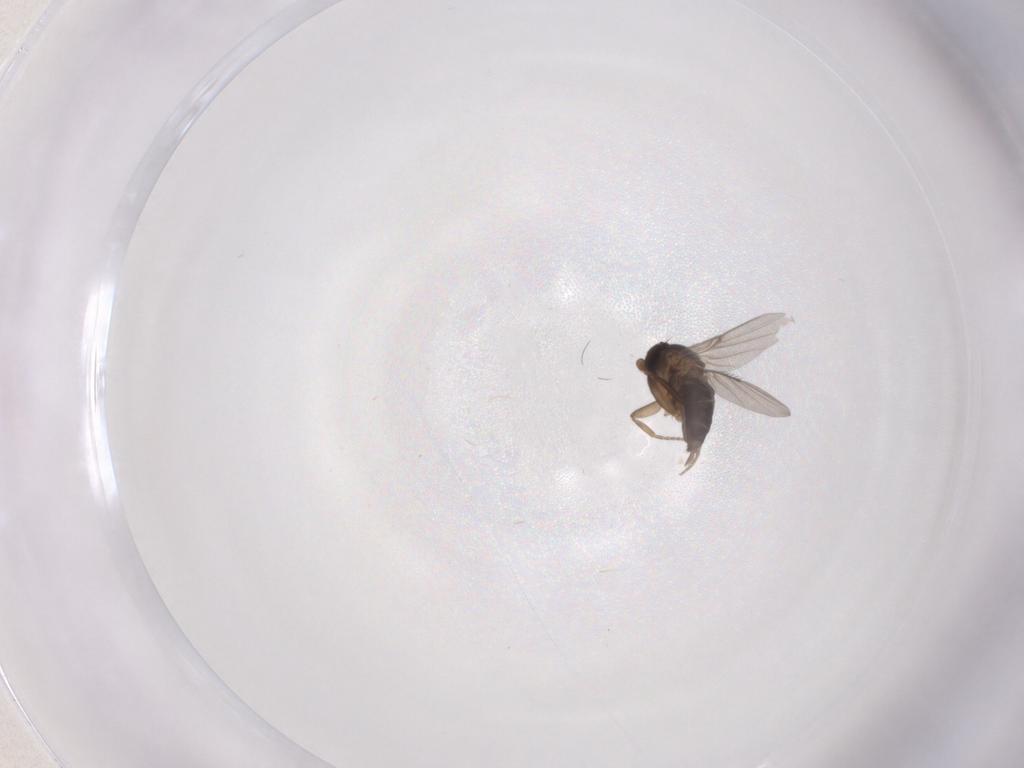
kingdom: Animalia
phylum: Arthropoda
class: Insecta
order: Diptera
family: Phoridae
